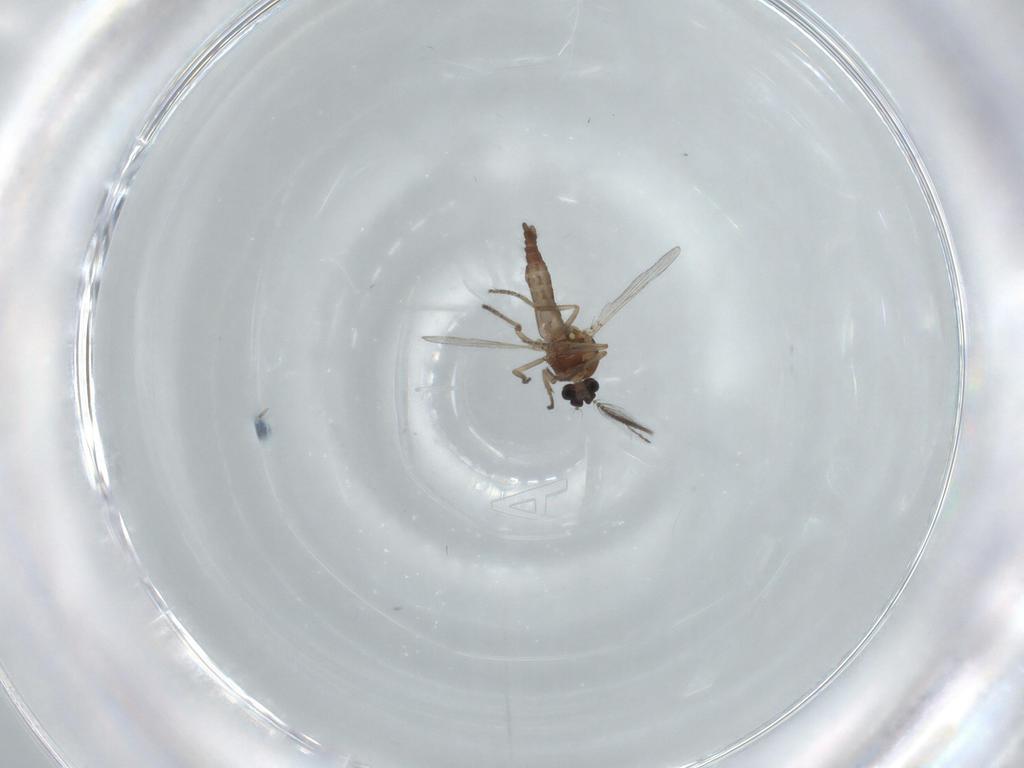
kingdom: Animalia
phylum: Arthropoda
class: Insecta
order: Diptera
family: Ceratopogonidae
